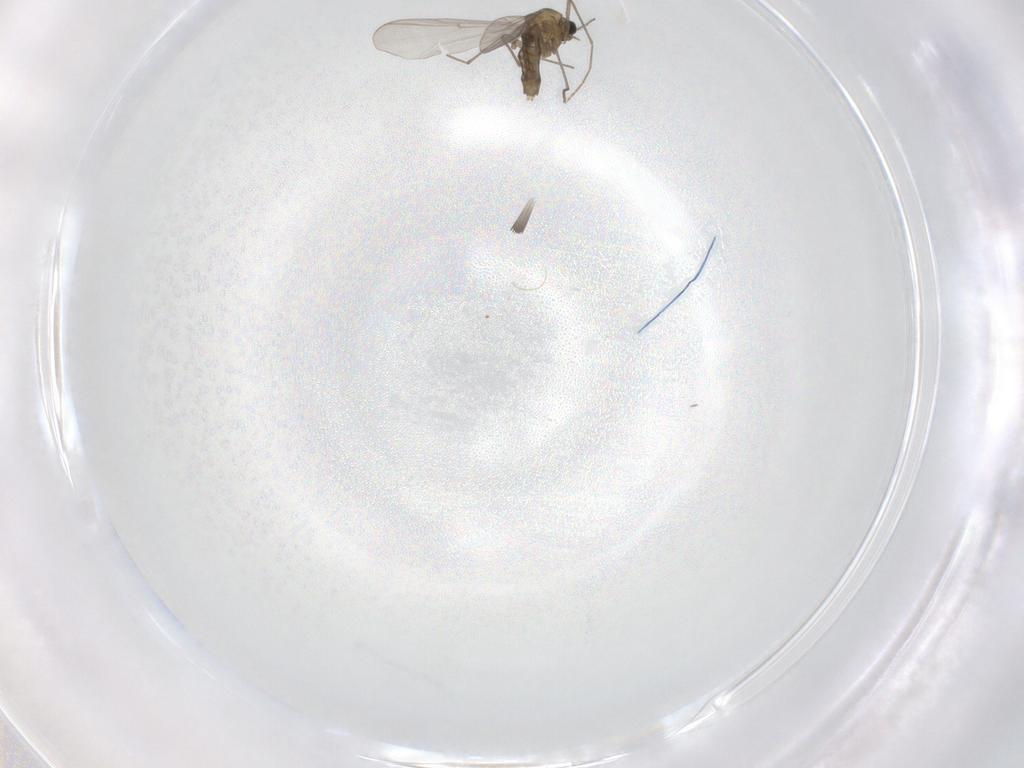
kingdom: Animalia
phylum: Arthropoda
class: Insecta
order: Diptera
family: Chironomidae
